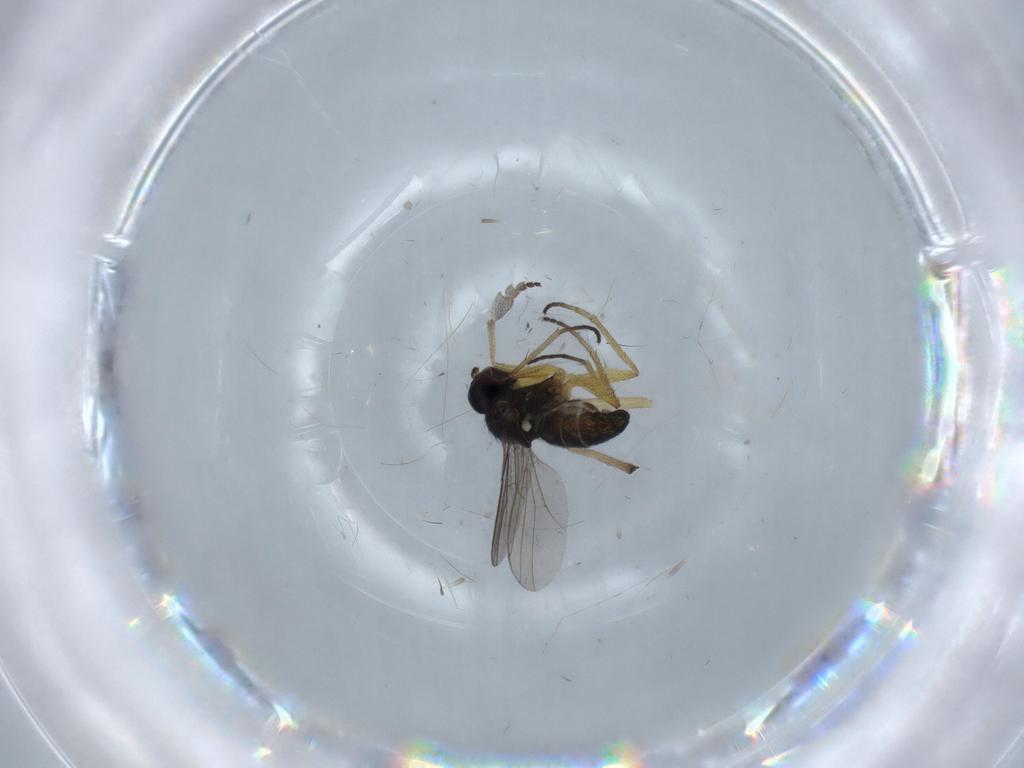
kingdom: Animalia
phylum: Arthropoda
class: Insecta
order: Diptera
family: Dolichopodidae
